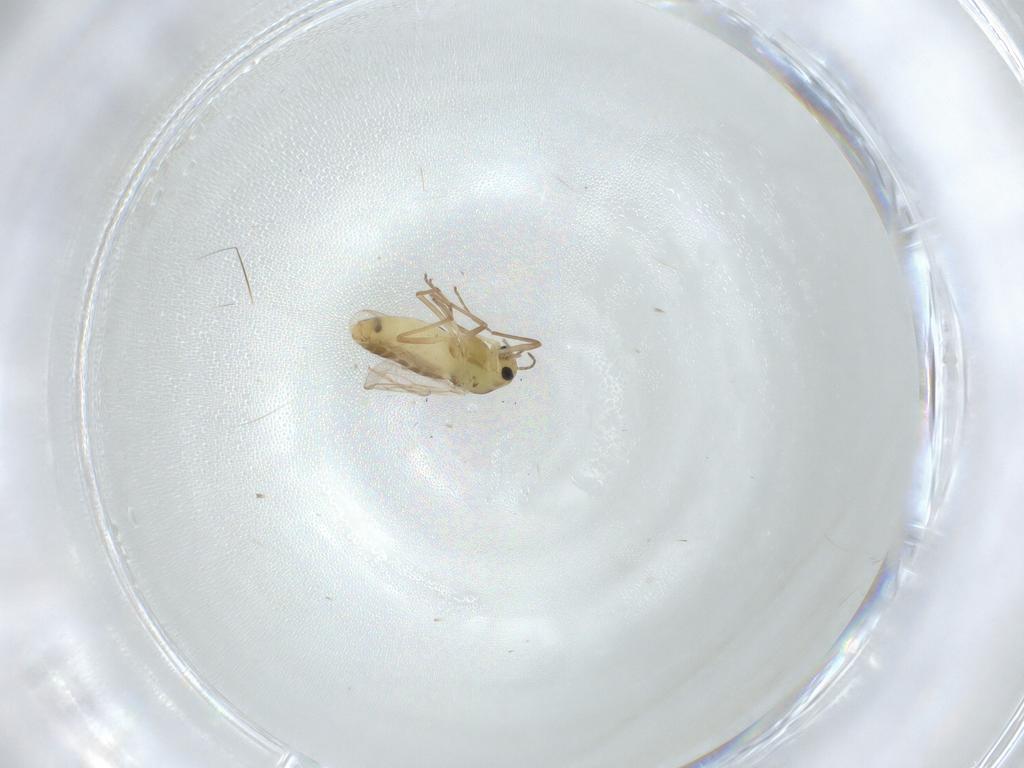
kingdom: Animalia
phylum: Arthropoda
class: Insecta
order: Diptera
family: Chironomidae
